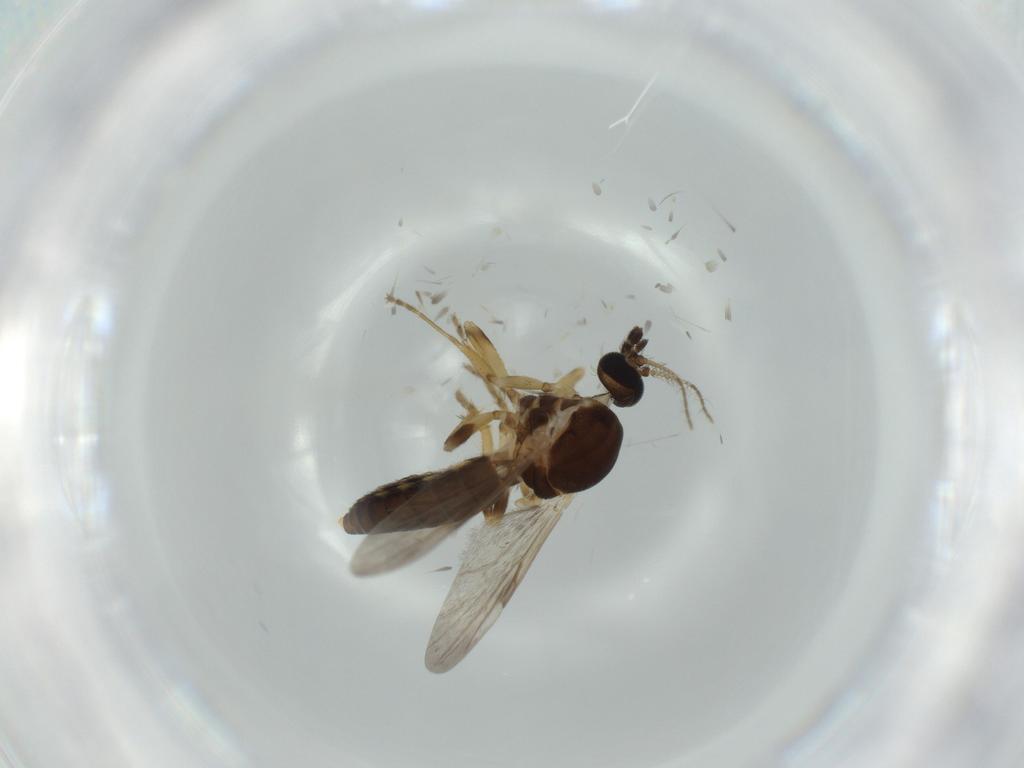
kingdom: Animalia
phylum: Arthropoda
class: Insecta
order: Diptera
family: Ceratopogonidae
